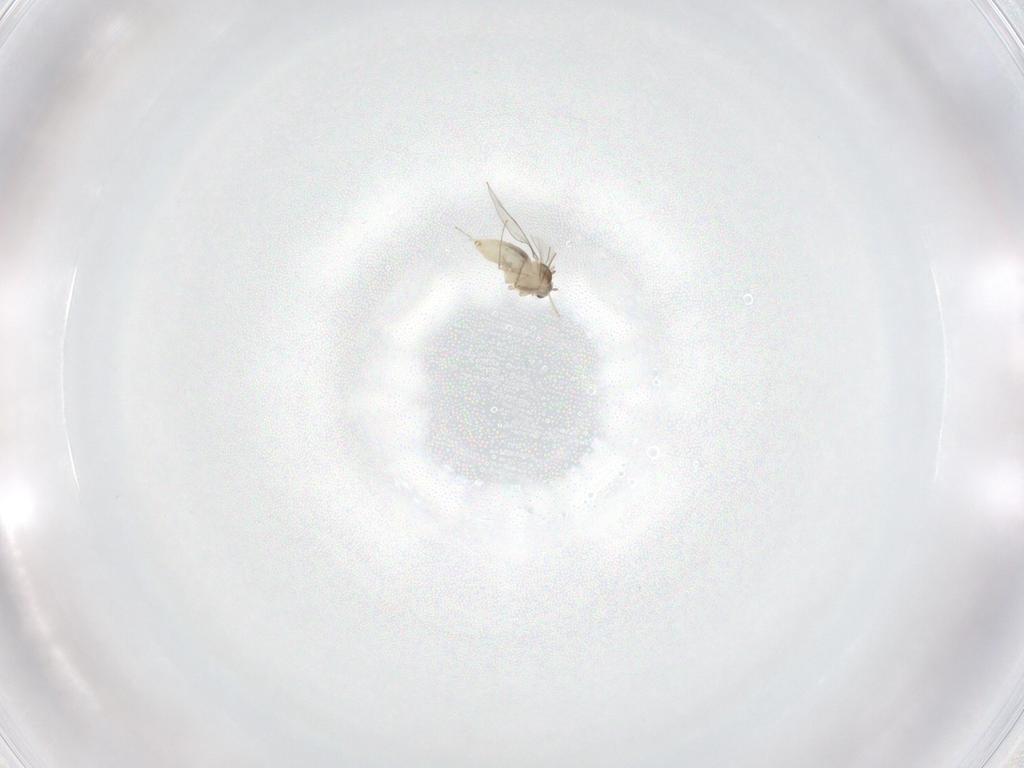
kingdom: Animalia
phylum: Arthropoda
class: Insecta
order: Diptera
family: Cecidomyiidae
